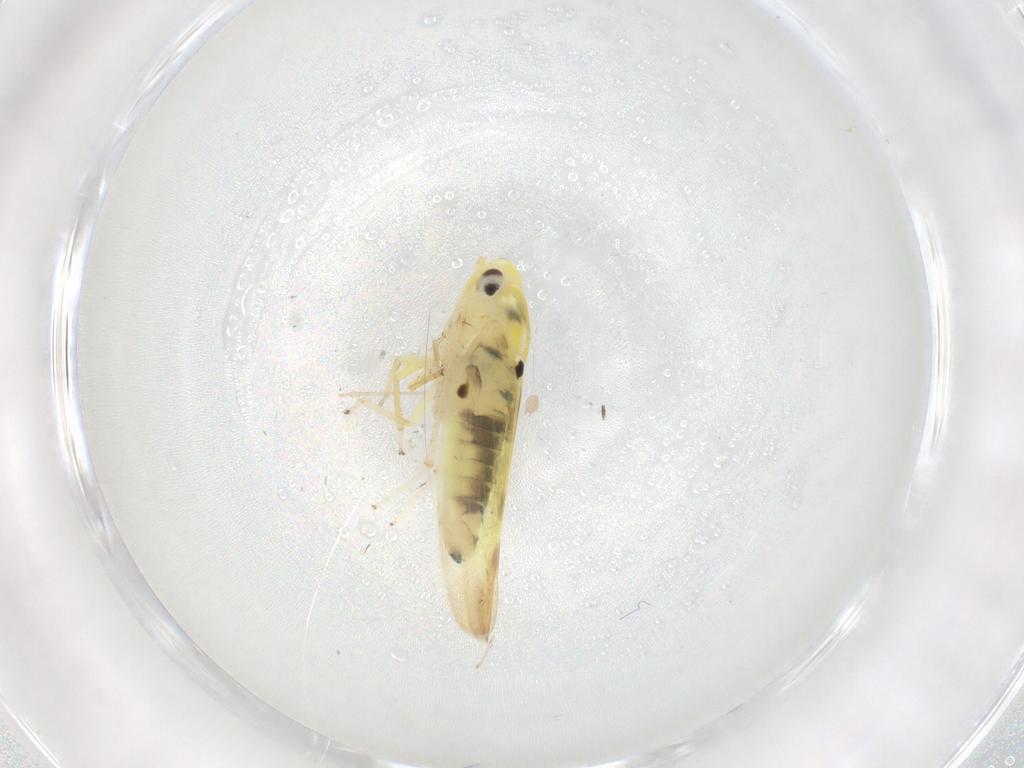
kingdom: Animalia
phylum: Arthropoda
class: Insecta
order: Hemiptera
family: Cicadellidae
